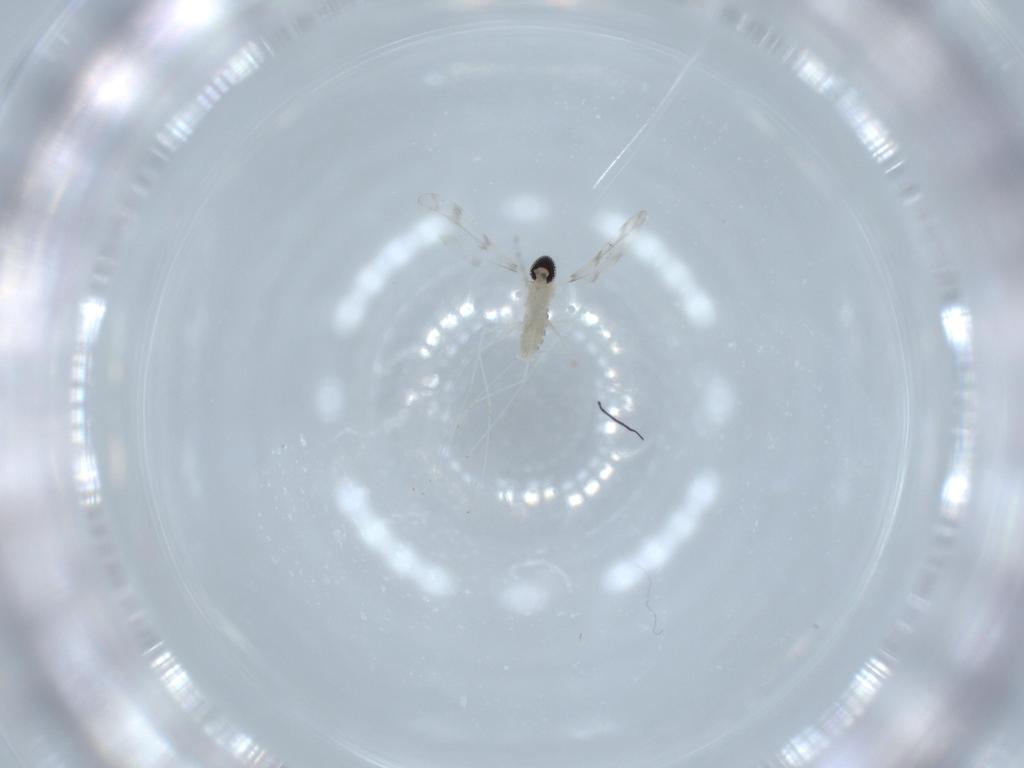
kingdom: Animalia
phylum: Arthropoda
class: Insecta
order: Diptera
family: Cecidomyiidae
